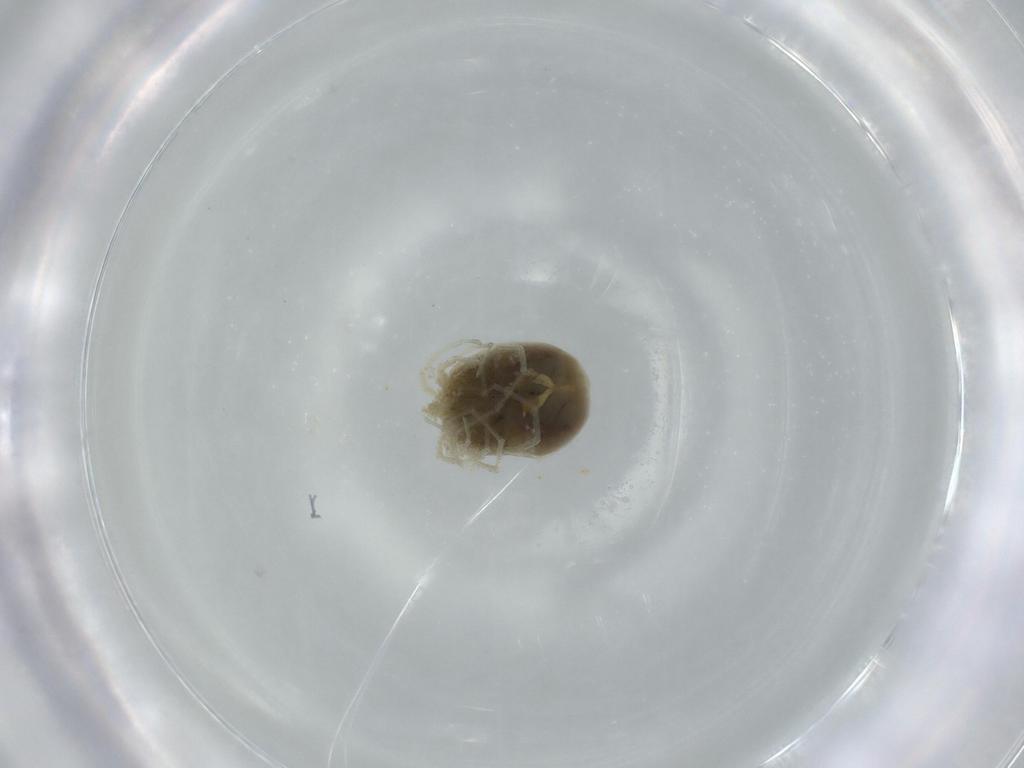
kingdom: Animalia
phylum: Arthropoda
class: Arachnida
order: Trombidiformes
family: Hygrobatidae
